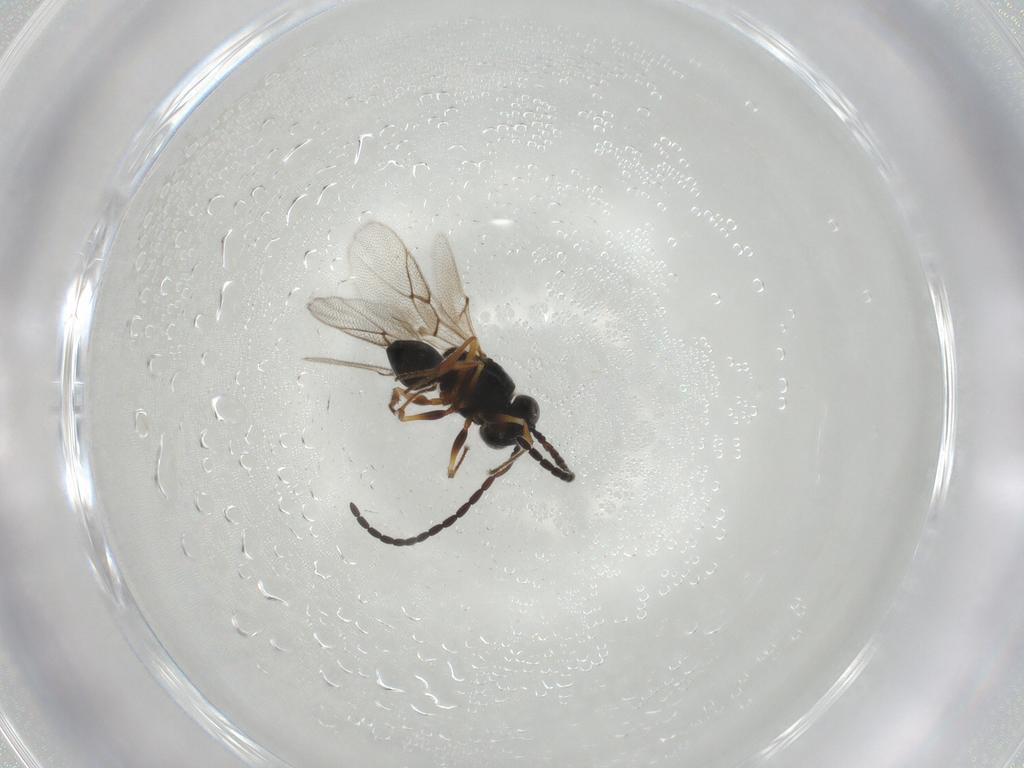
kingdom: Animalia
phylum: Arthropoda
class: Insecta
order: Hymenoptera
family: Figitidae
